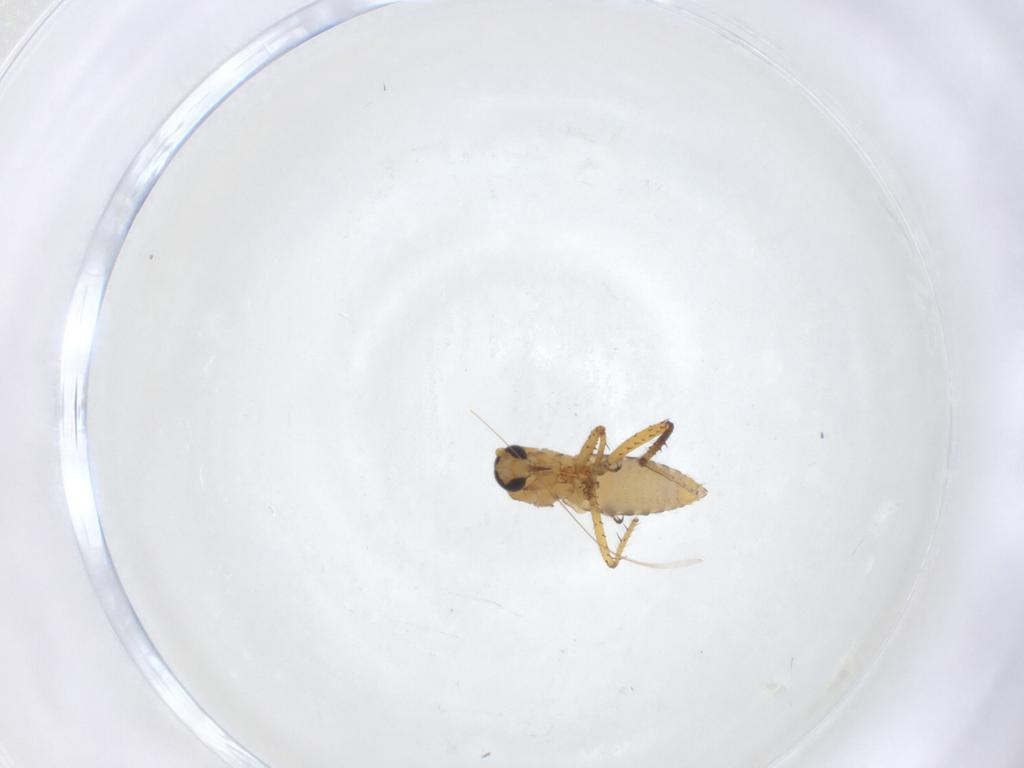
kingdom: Animalia
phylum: Arthropoda
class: Insecta
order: Diptera
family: Ceratopogonidae
